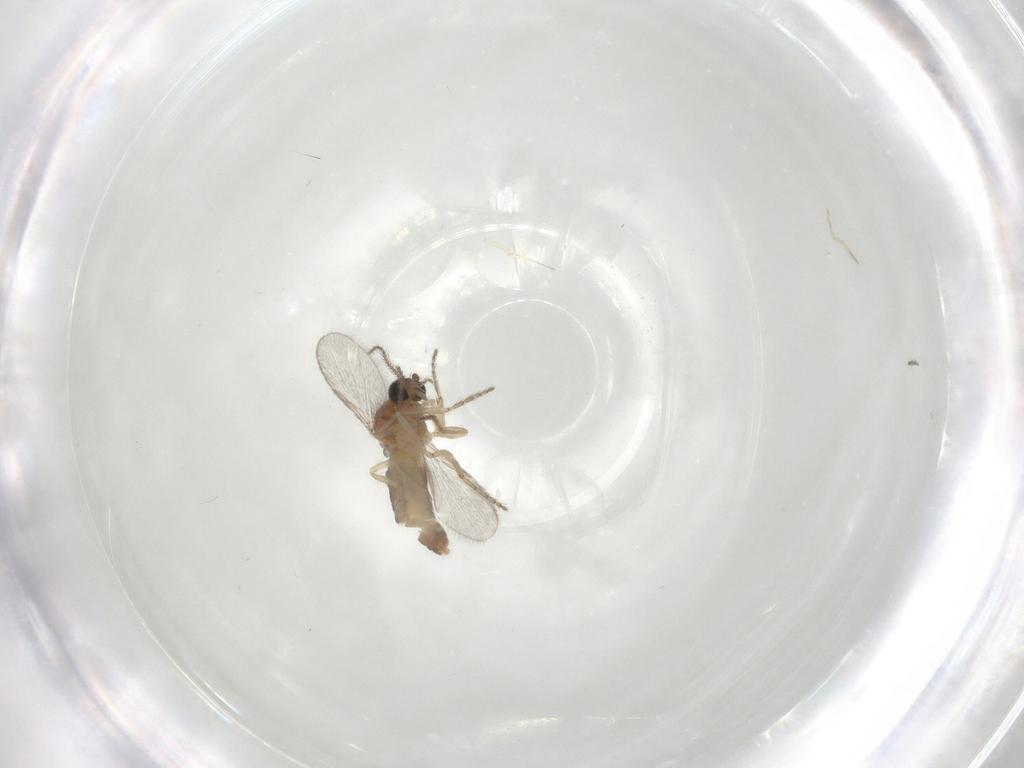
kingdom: Animalia
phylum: Arthropoda
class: Insecta
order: Diptera
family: Ceratopogonidae
